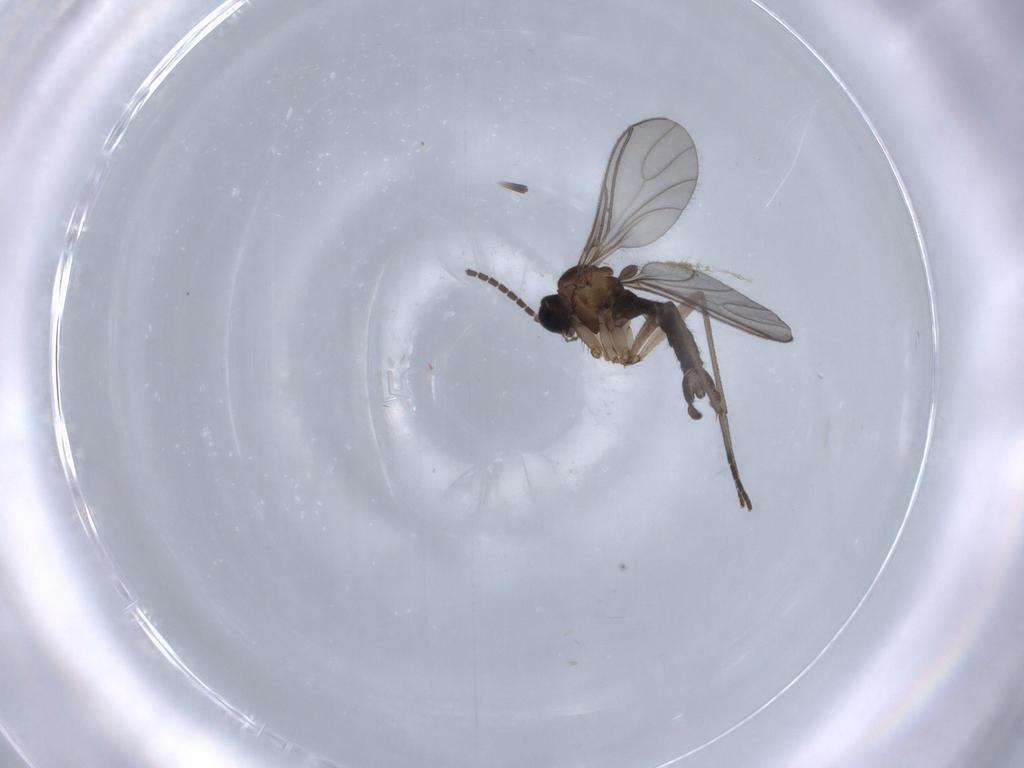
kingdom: Animalia
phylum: Arthropoda
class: Insecta
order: Diptera
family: Sciaridae
